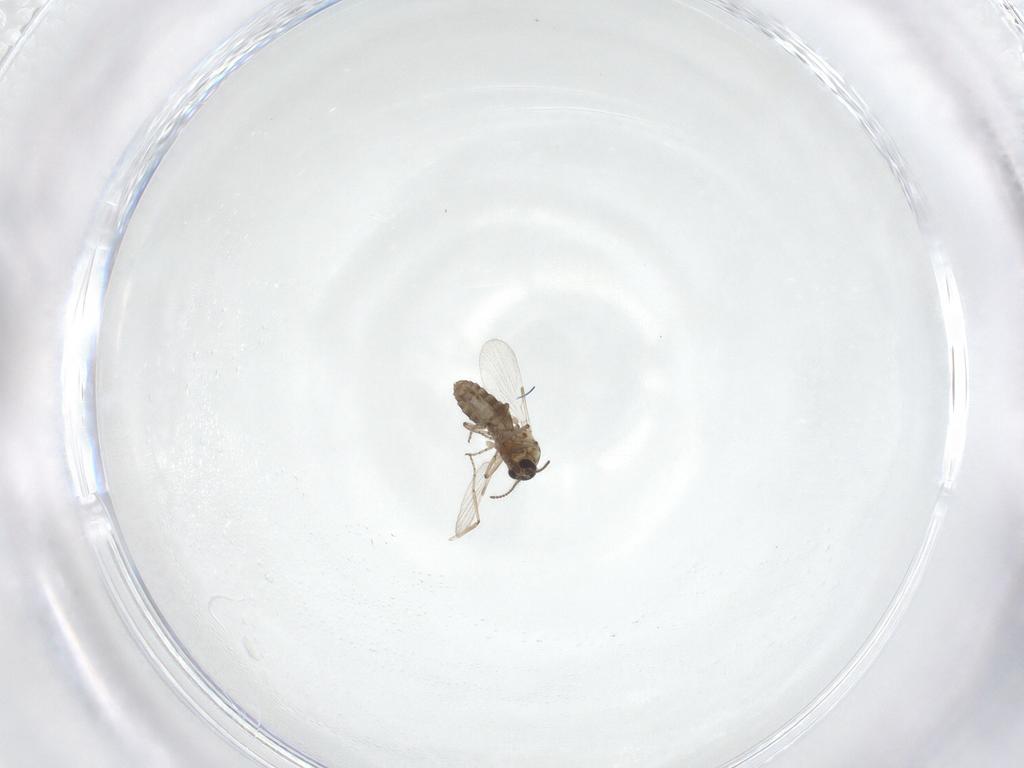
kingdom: Animalia
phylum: Arthropoda
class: Insecta
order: Diptera
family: Ceratopogonidae
